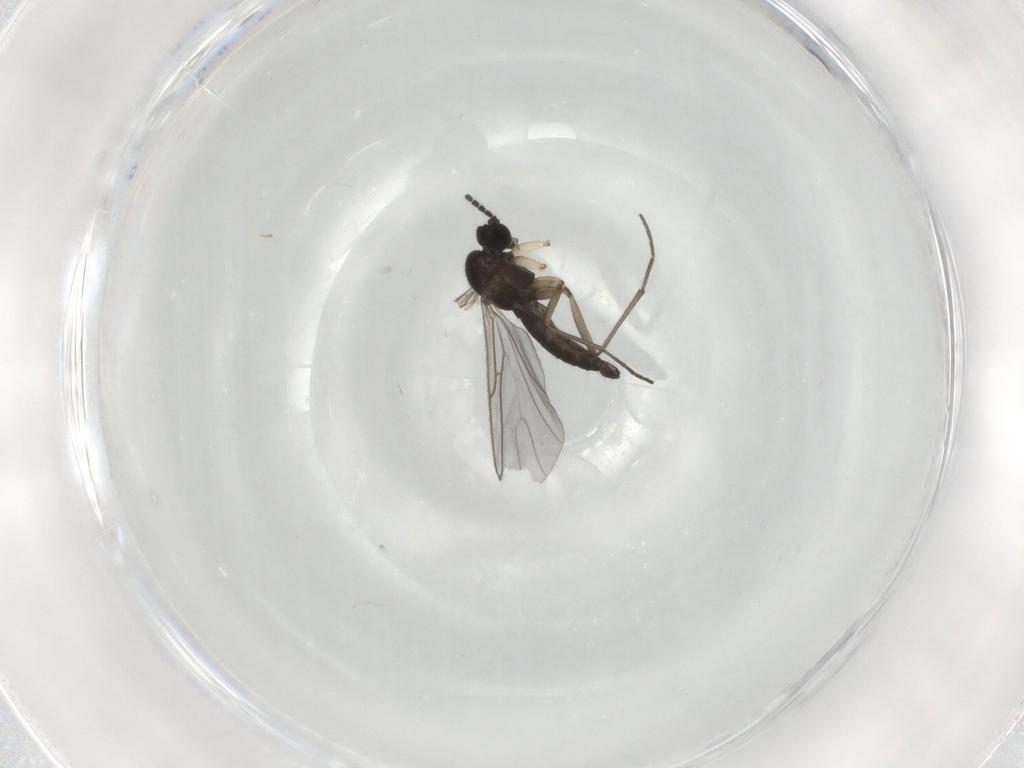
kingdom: Animalia
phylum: Arthropoda
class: Insecta
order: Diptera
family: Sciaridae
